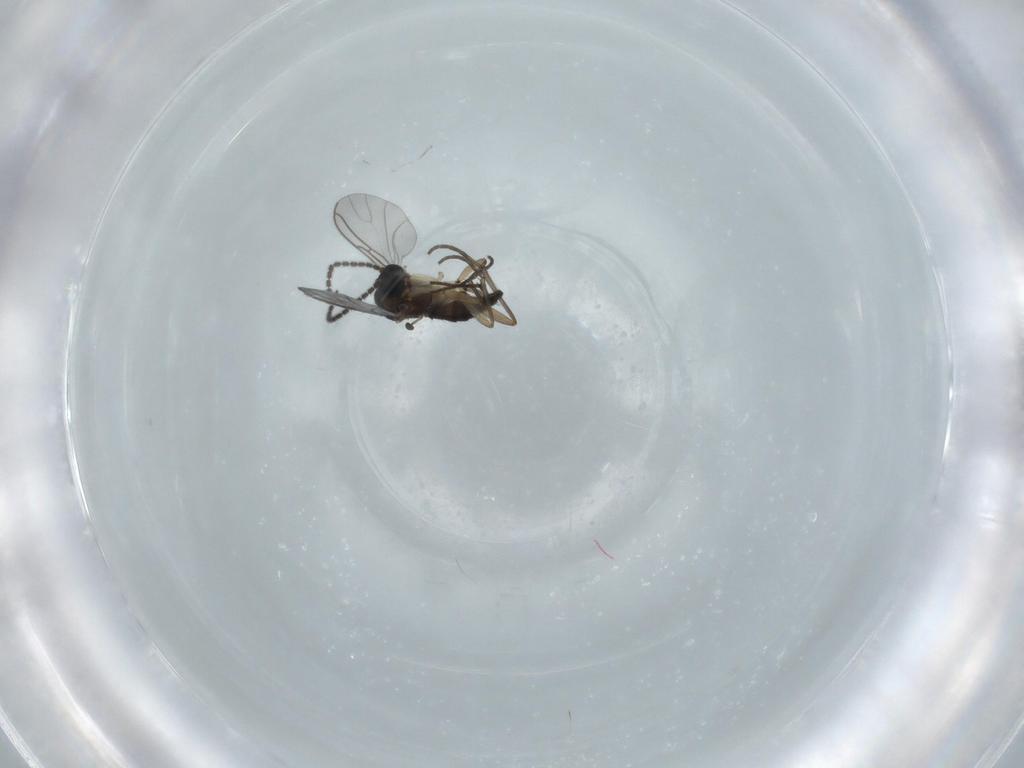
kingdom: Animalia
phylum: Arthropoda
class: Insecta
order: Diptera
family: Sciaridae
